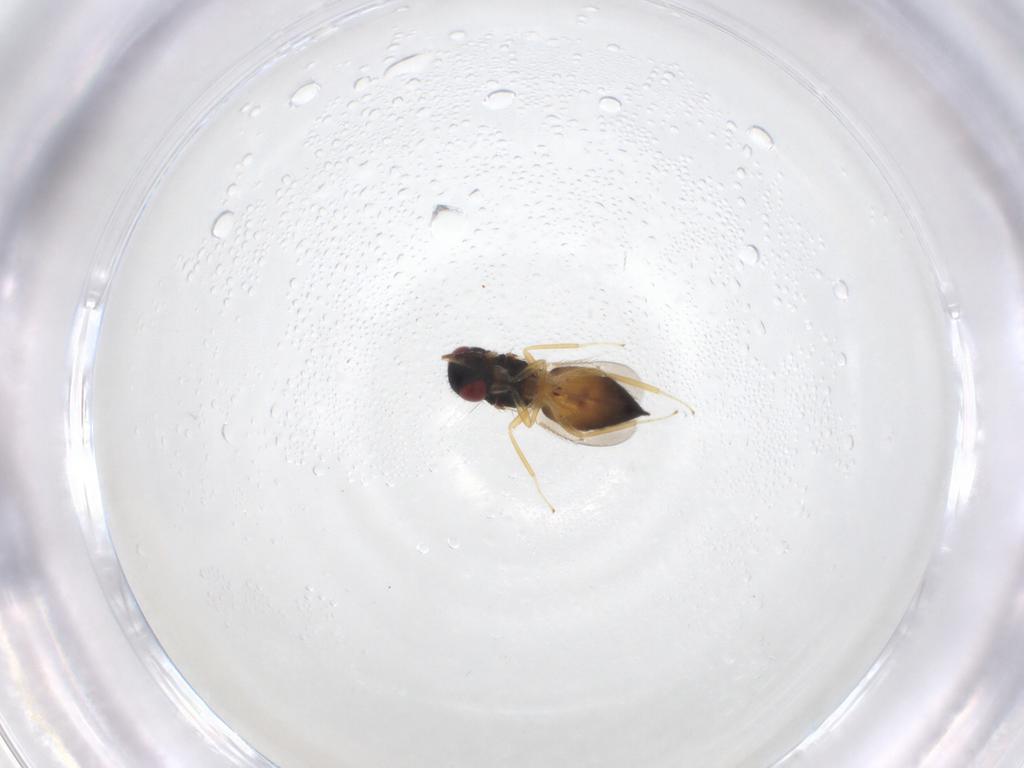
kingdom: Animalia
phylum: Arthropoda
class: Insecta
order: Hymenoptera
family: Eulophidae
